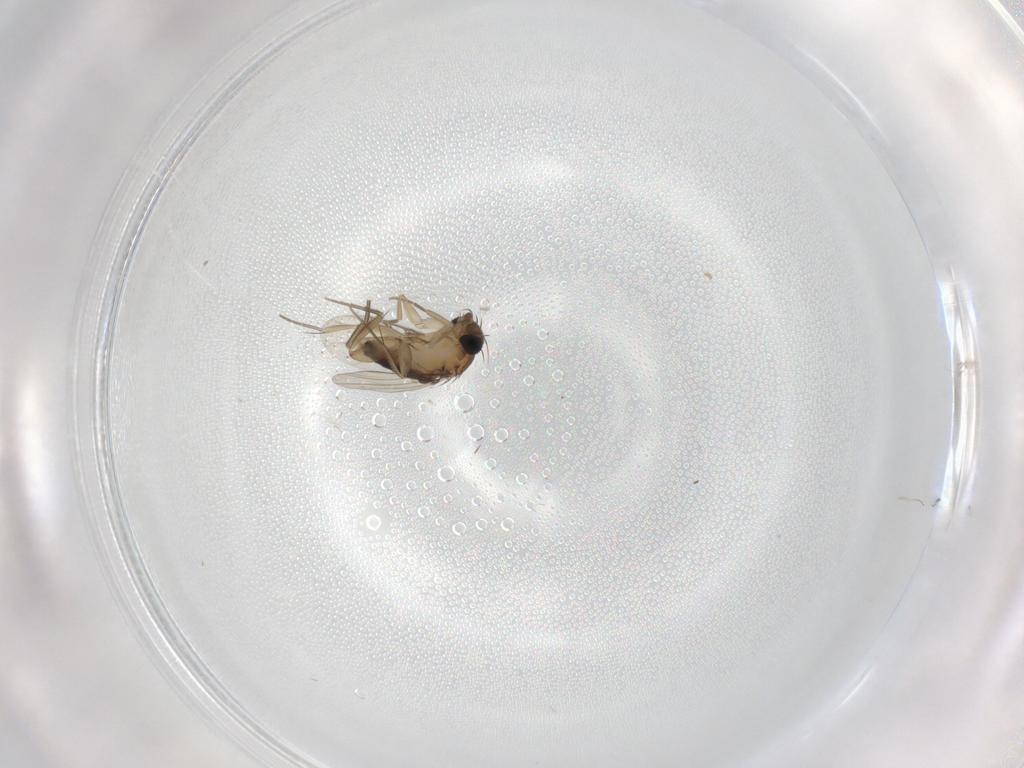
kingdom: Animalia
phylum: Arthropoda
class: Insecta
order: Diptera
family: Phoridae
